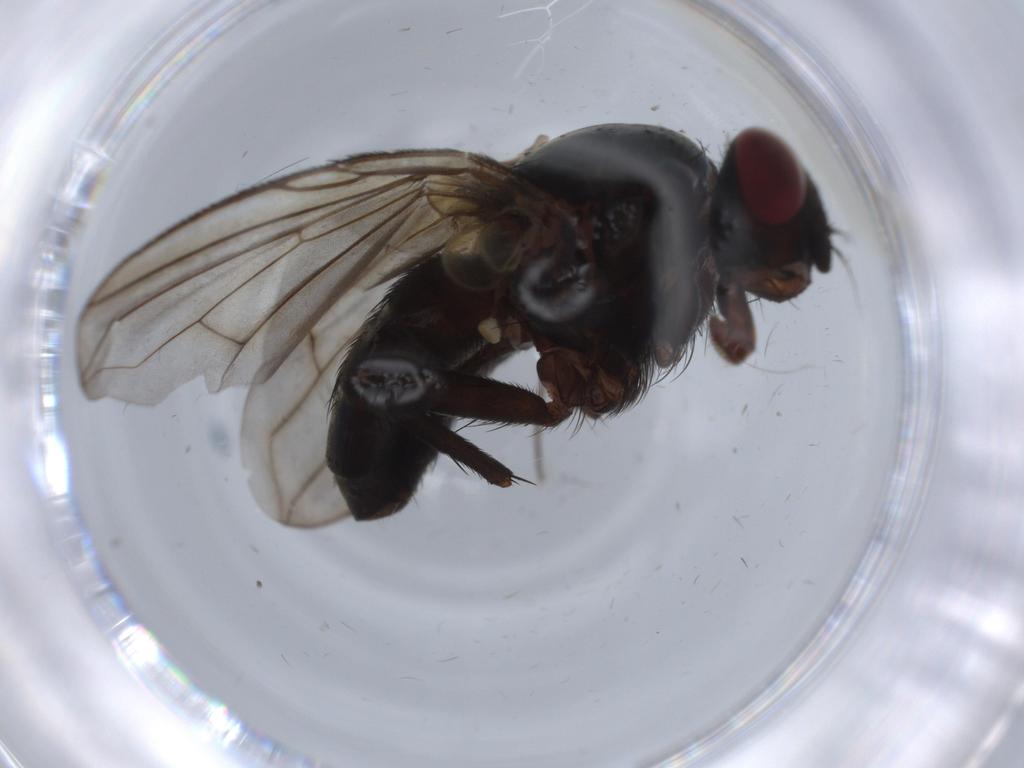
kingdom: Animalia
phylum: Arthropoda
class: Insecta
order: Diptera
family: Calliphoridae
